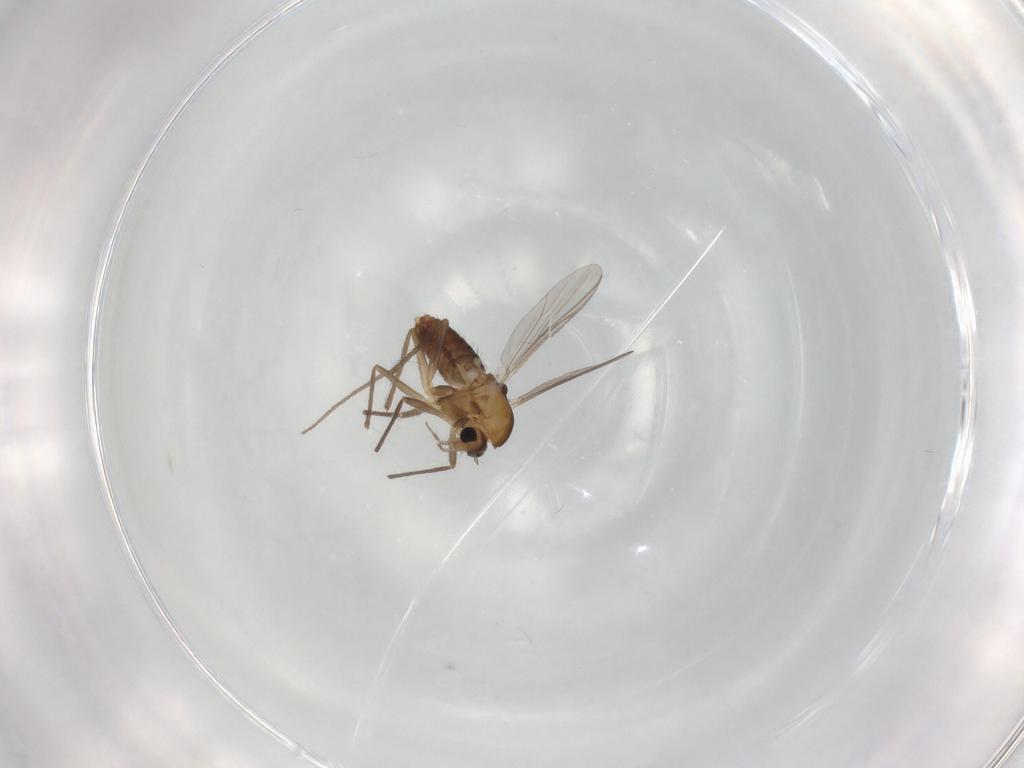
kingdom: Animalia
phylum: Arthropoda
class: Insecta
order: Diptera
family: Chironomidae
